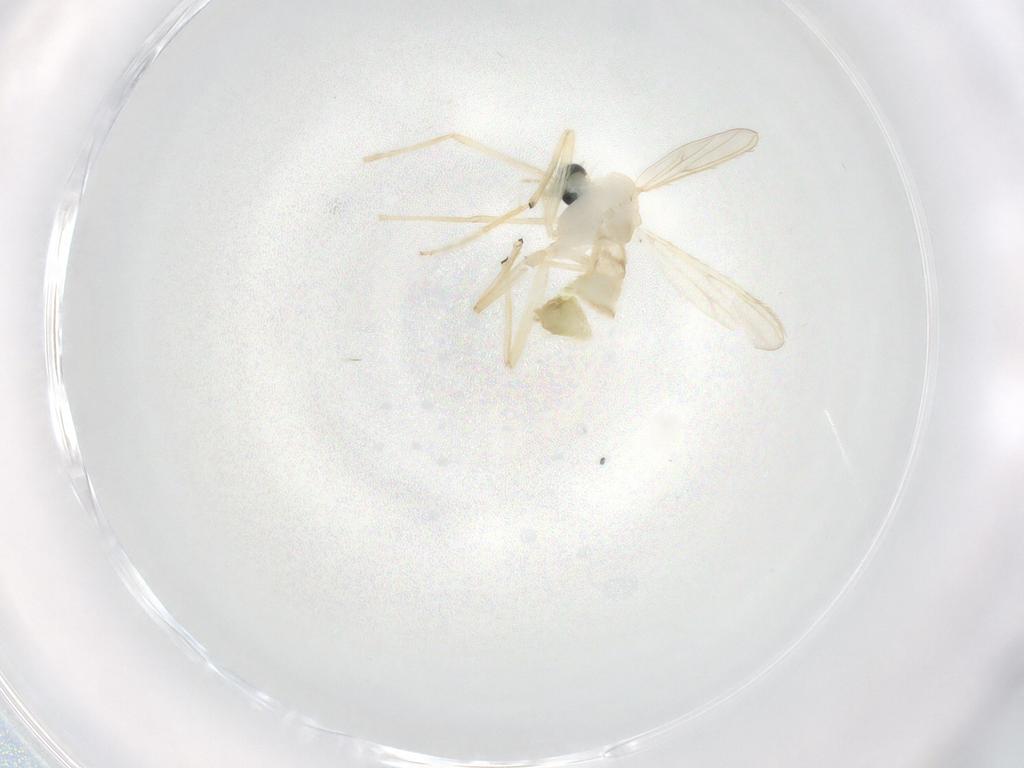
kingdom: Animalia
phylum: Arthropoda
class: Insecta
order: Diptera
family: Chironomidae
